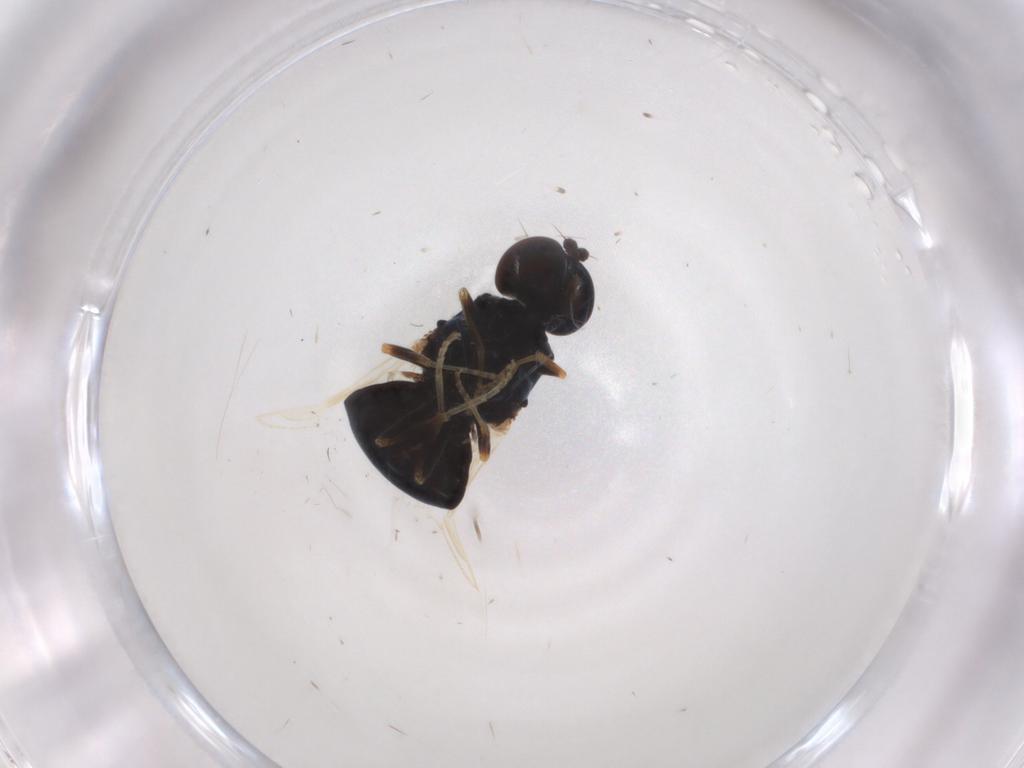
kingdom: Animalia
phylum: Arthropoda
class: Insecta
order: Diptera
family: Stratiomyidae
